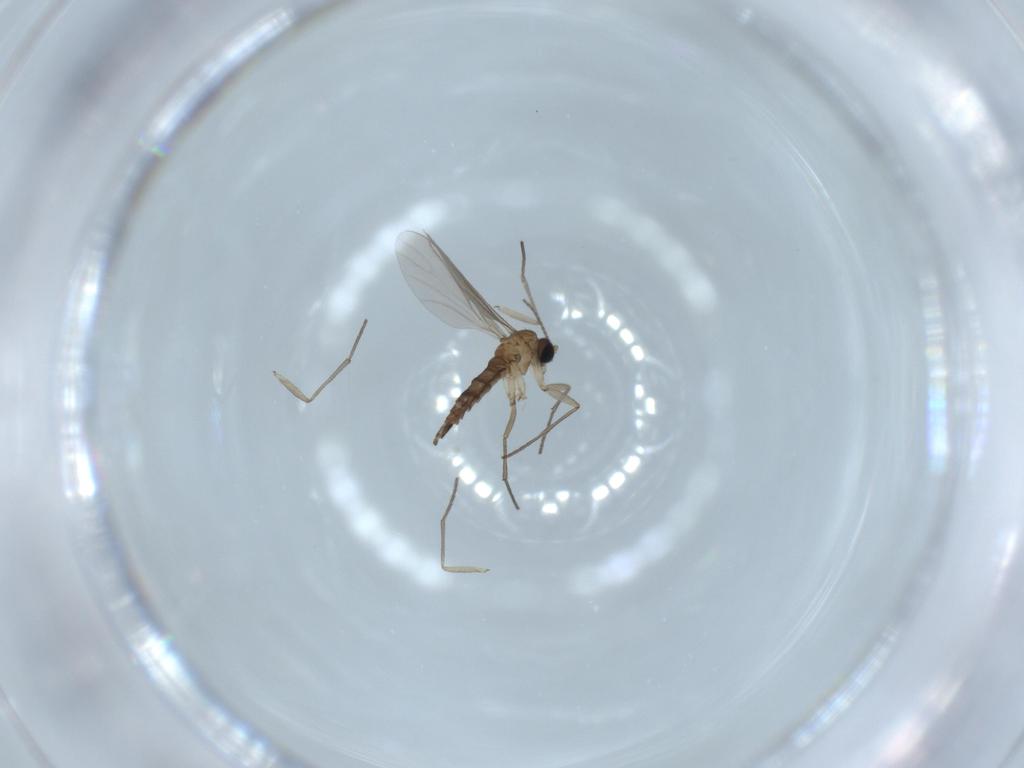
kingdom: Animalia
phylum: Arthropoda
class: Insecta
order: Diptera
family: Sciaridae
